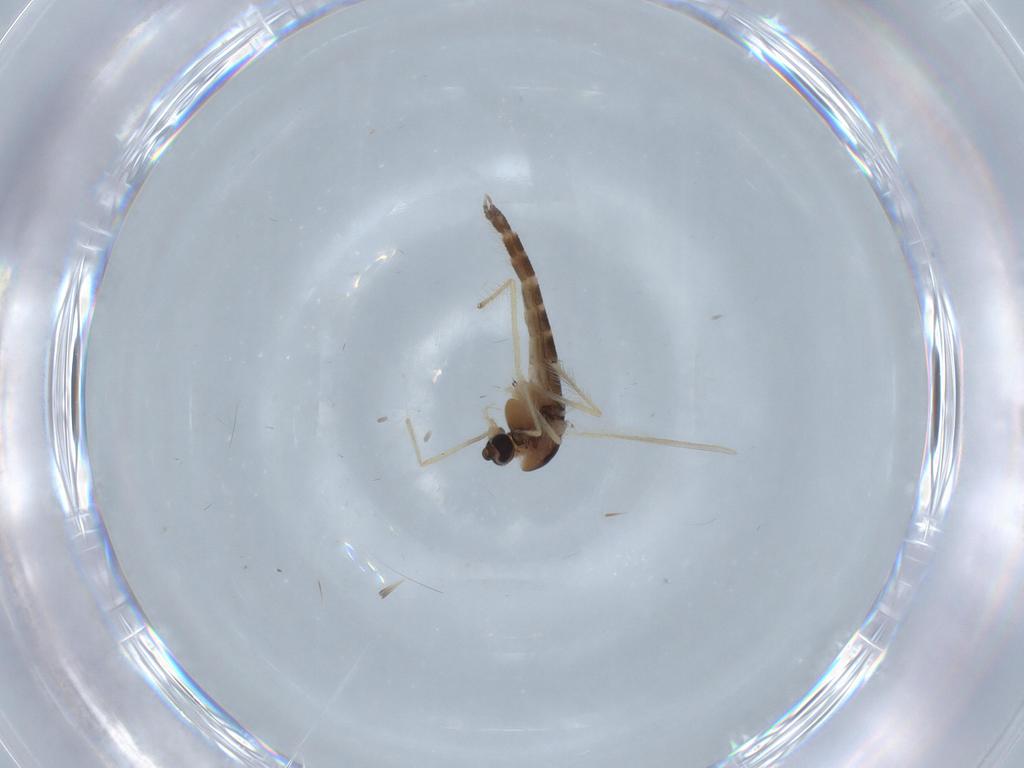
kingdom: Animalia
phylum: Arthropoda
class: Insecta
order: Diptera
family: Chironomidae
